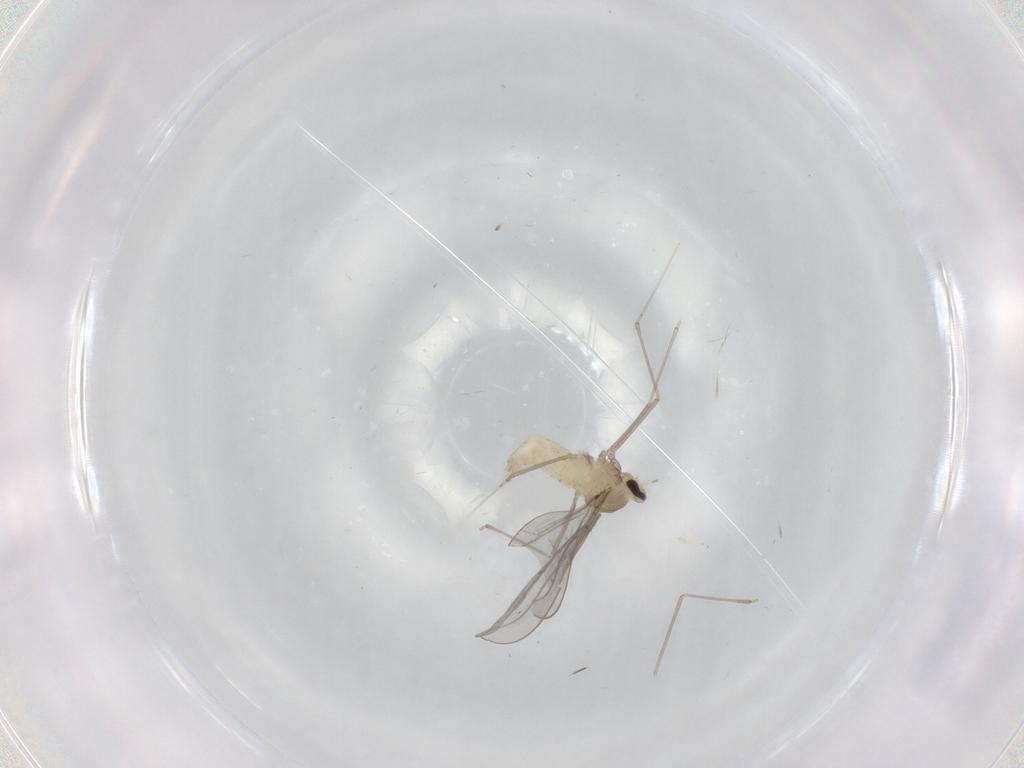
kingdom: Animalia
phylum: Arthropoda
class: Insecta
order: Diptera
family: Cecidomyiidae
